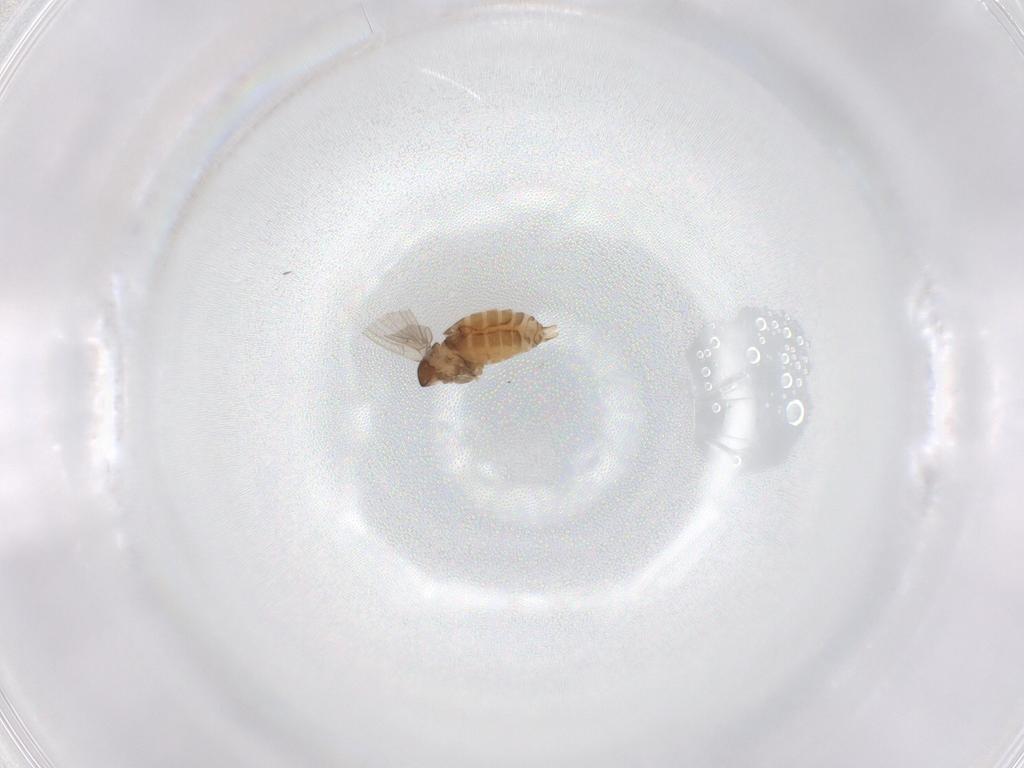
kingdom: Animalia
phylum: Arthropoda
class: Insecta
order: Diptera
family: Psychodidae
